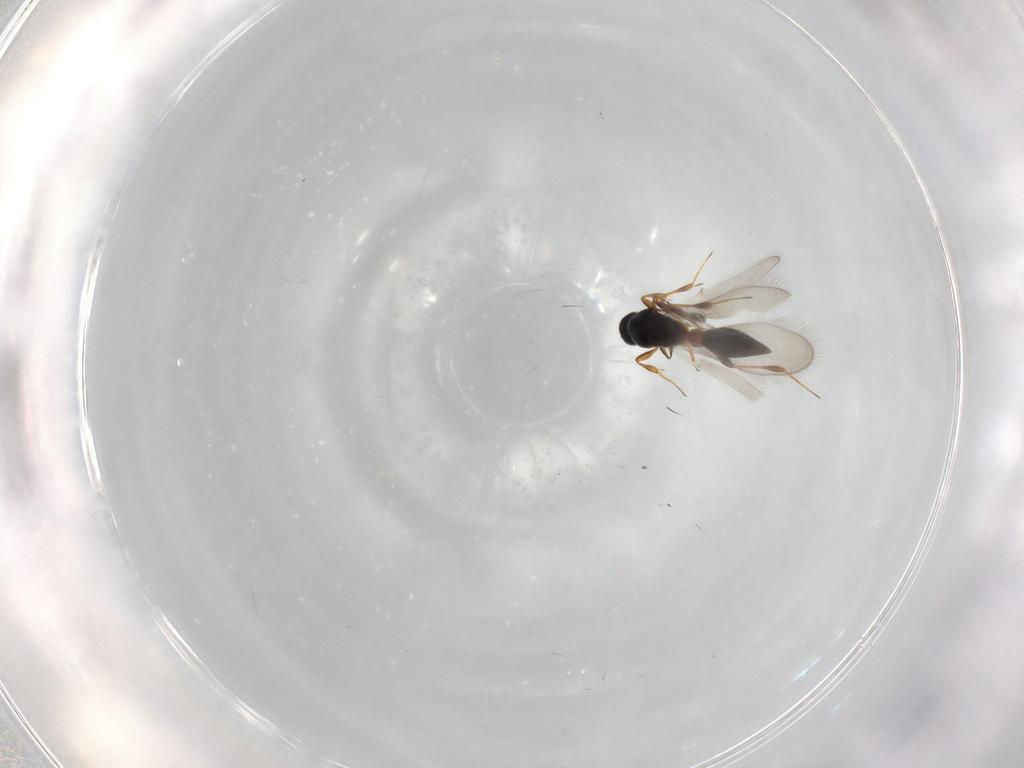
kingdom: Animalia
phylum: Arthropoda
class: Insecta
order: Hymenoptera
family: Platygastridae
